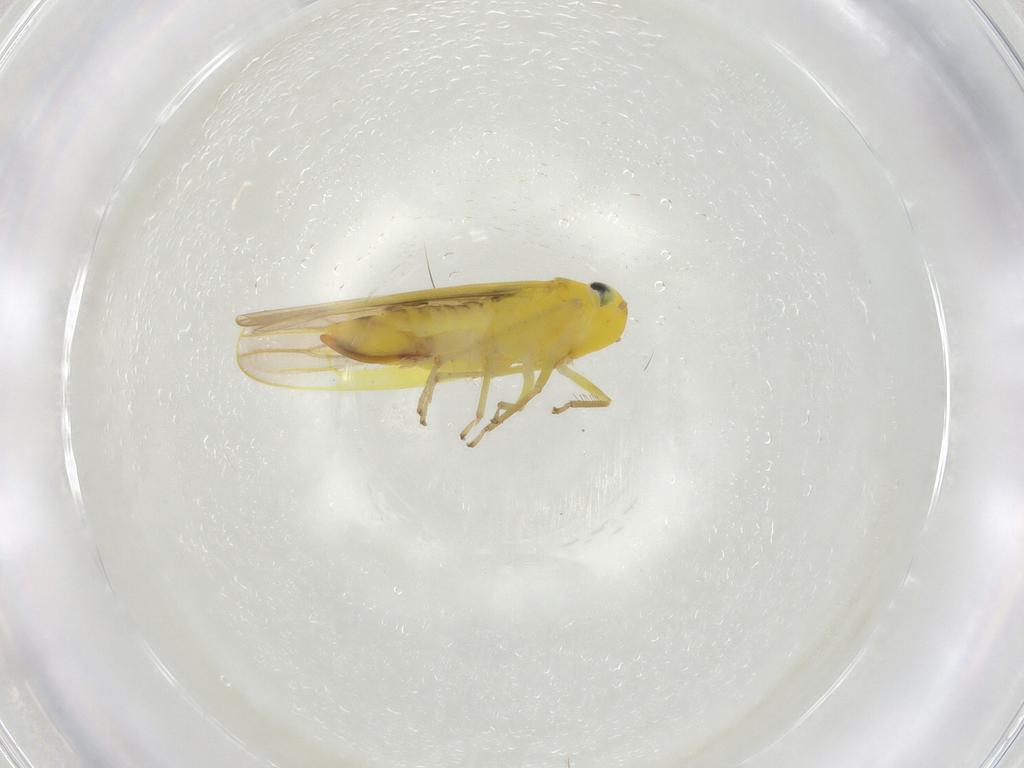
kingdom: Animalia
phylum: Arthropoda
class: Insecta
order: Hemiptera
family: Cicadellidae
